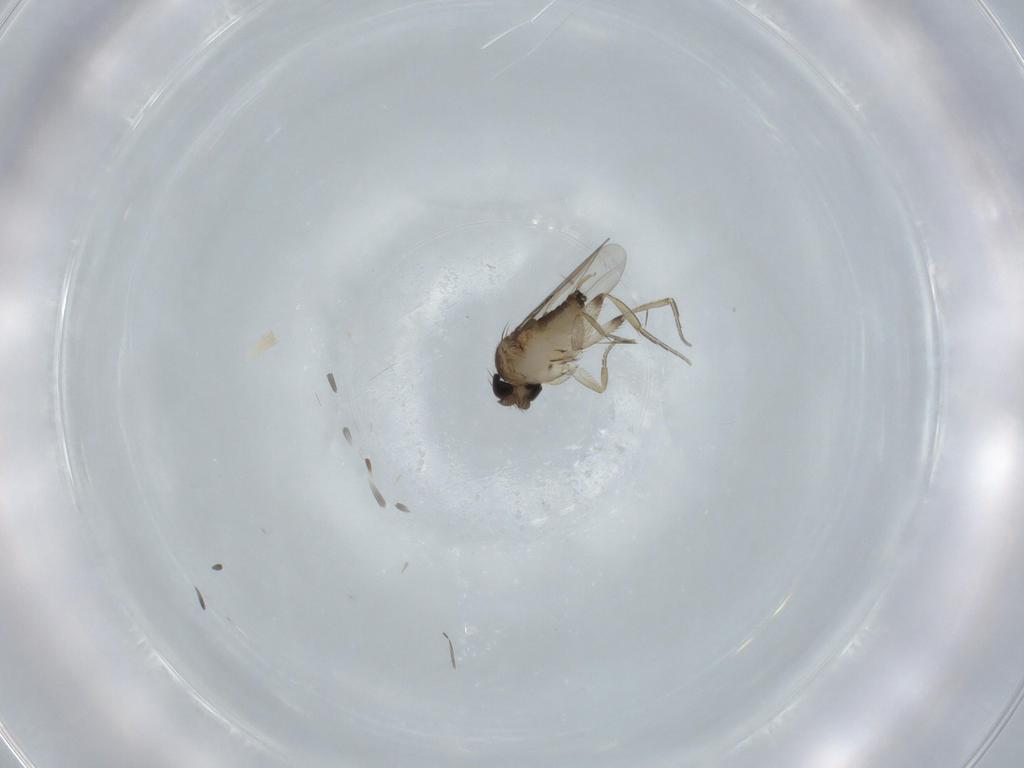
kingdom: Animalia
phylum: Arthropoda
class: Insecta
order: Diptera
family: Phoridae
